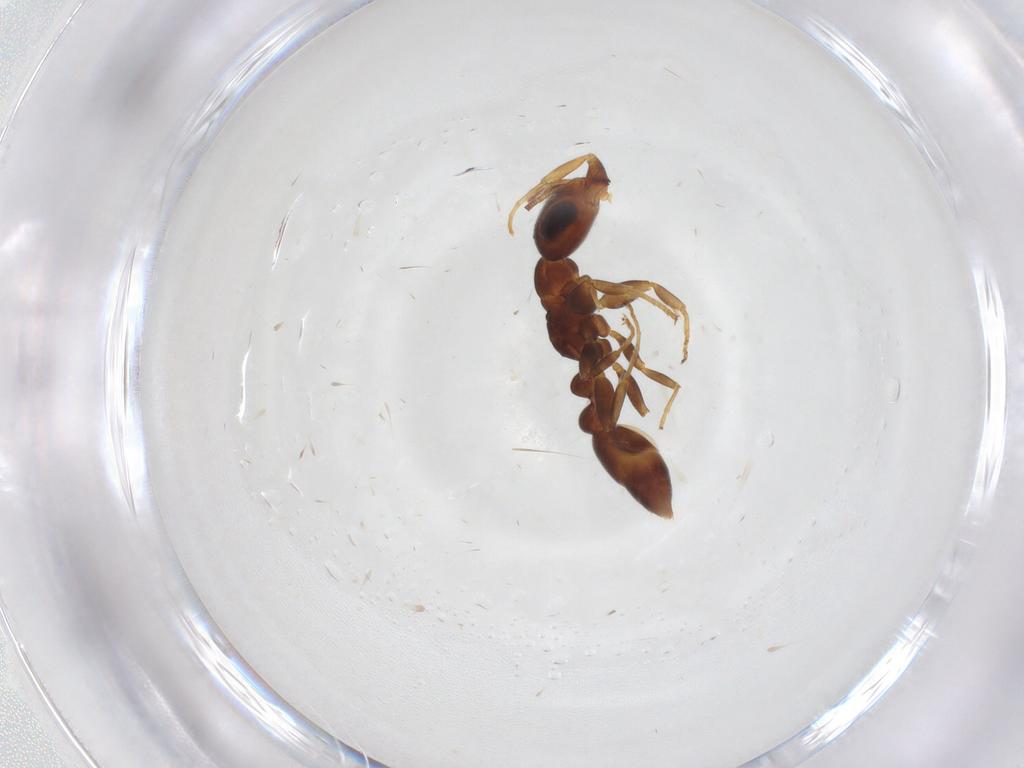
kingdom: Animalia
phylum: Arthropoda
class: Insecta
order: Hymenoptera
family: Formicidae
